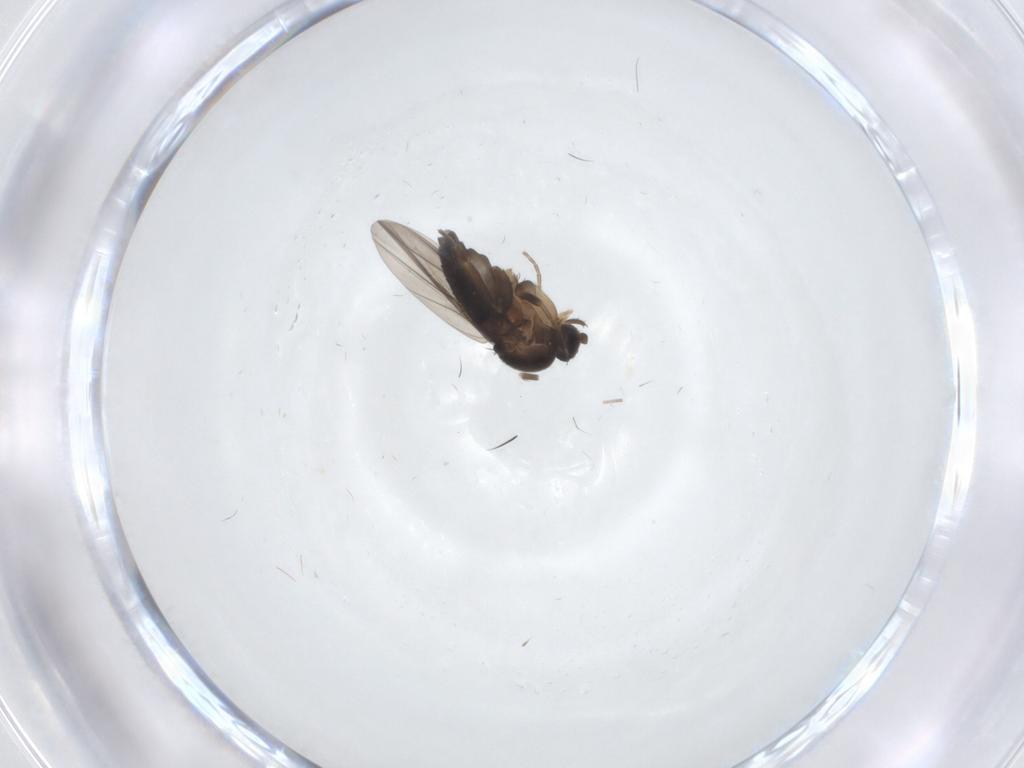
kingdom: Animalia
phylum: Arthropoda
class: Insecta
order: Diptera
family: Phoridae
